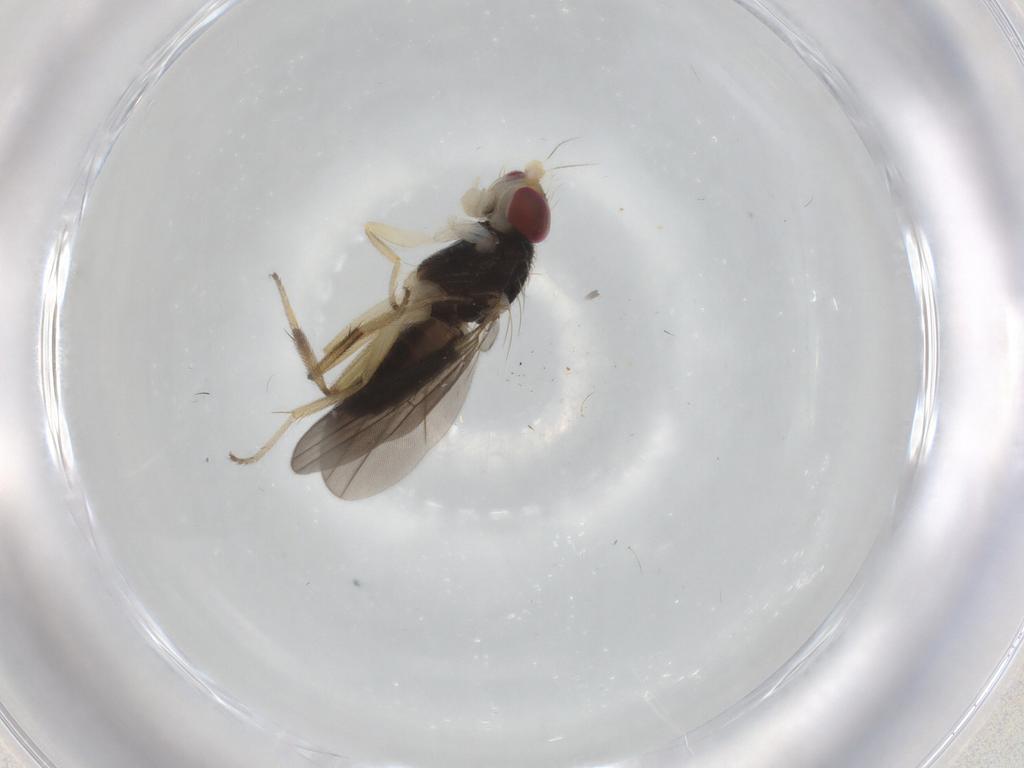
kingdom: Animalia
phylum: Arthropoda
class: Insecta
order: Diptera
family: Clusiidae
